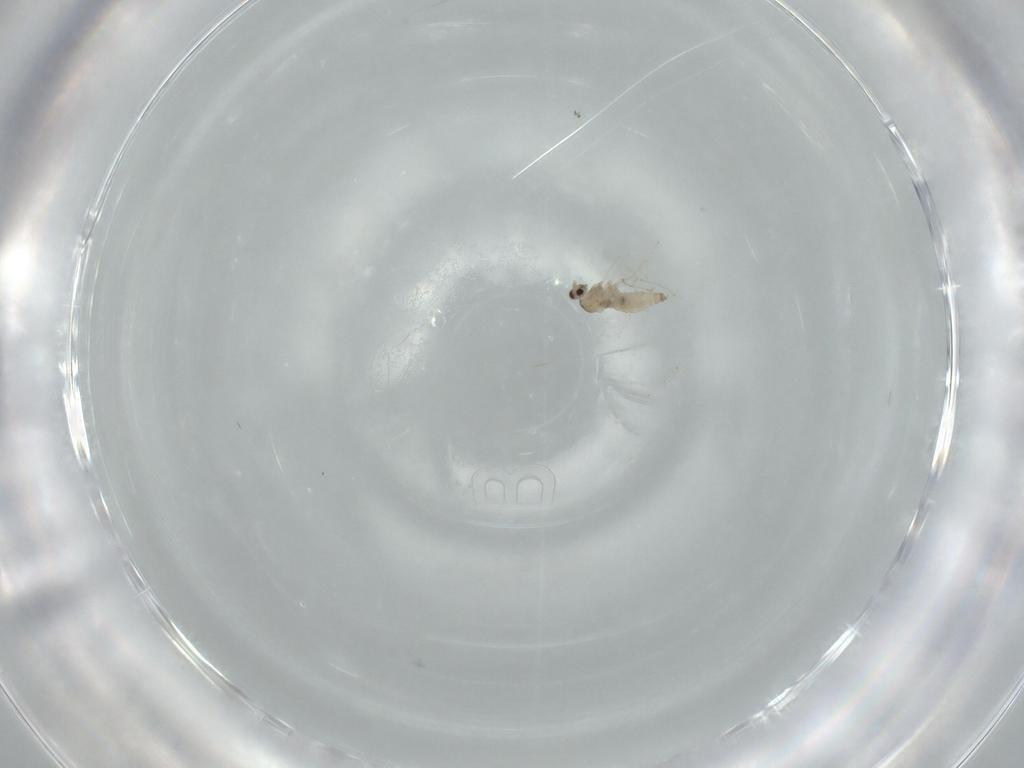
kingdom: Animalia
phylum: Arthropoda
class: Insecta
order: Diptera
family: Cecidomyiidae
